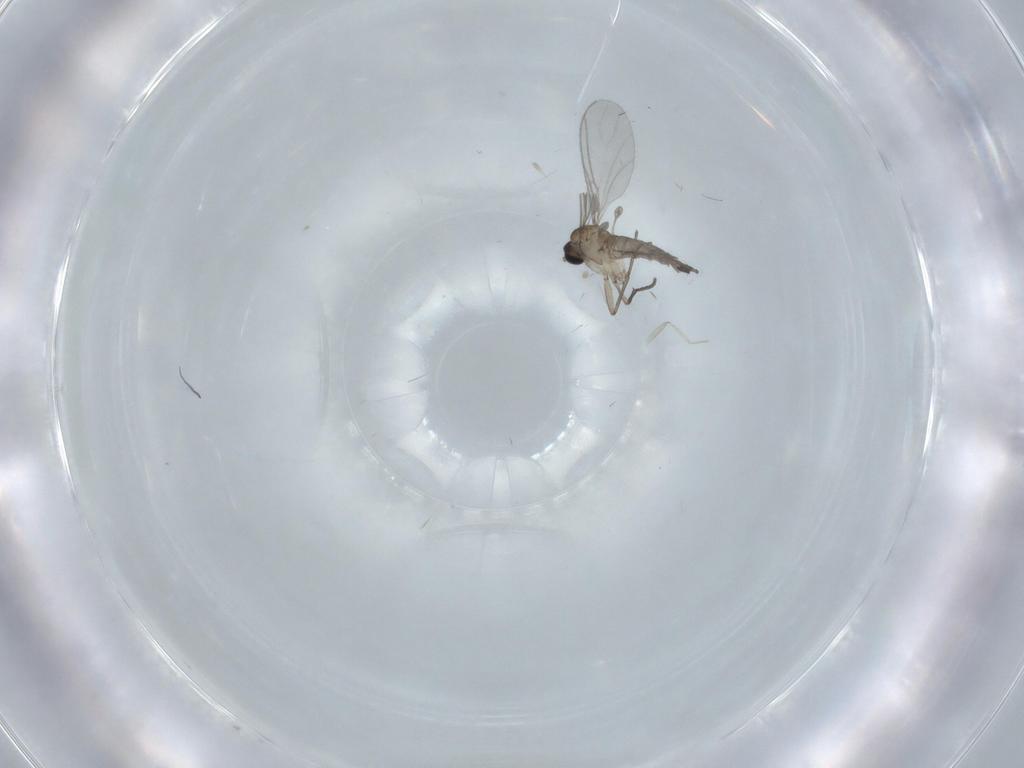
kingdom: Animalia
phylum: Arthropoda
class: Insecta
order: Diptera
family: Sciaridae
